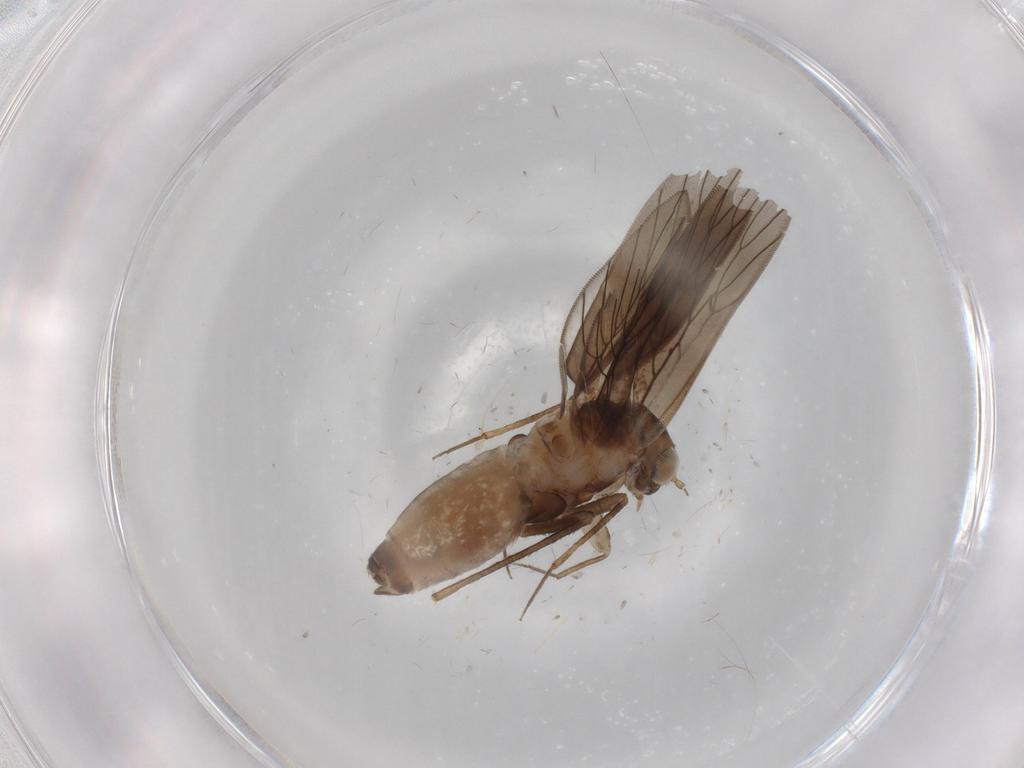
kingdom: Animalia
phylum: Arthropoda
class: Insecta
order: Psocodea
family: Lepidopsocidae
